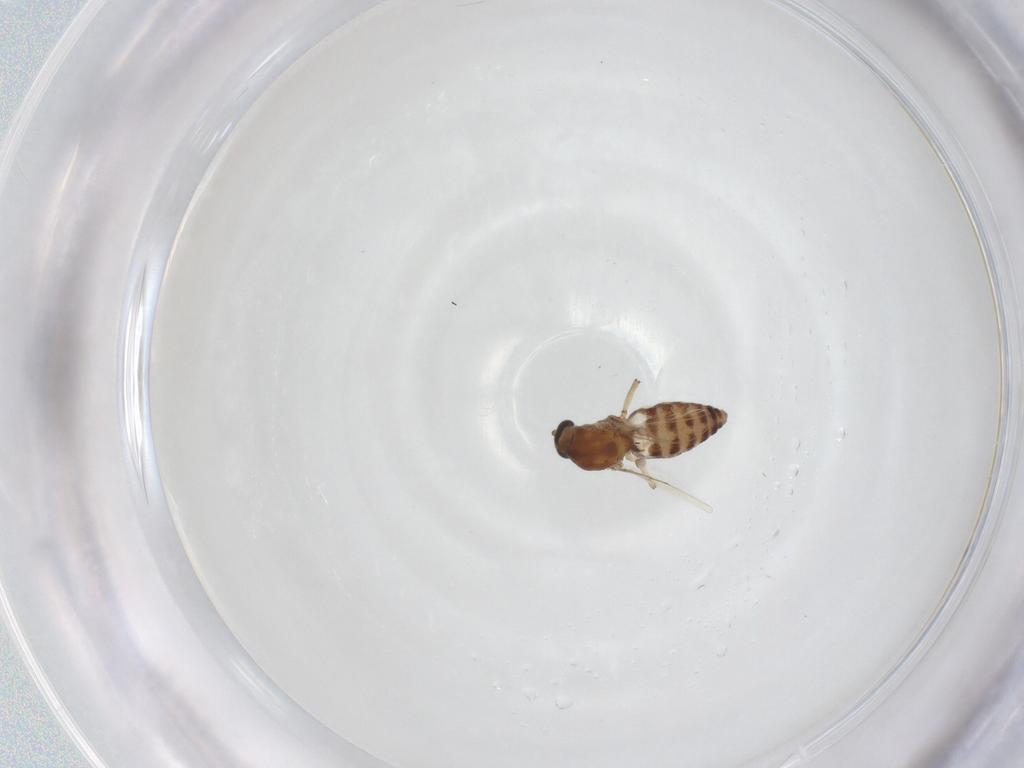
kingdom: Animalia
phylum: Arthropoda
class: Insecta
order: Diptera
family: Ceratopogonidae
